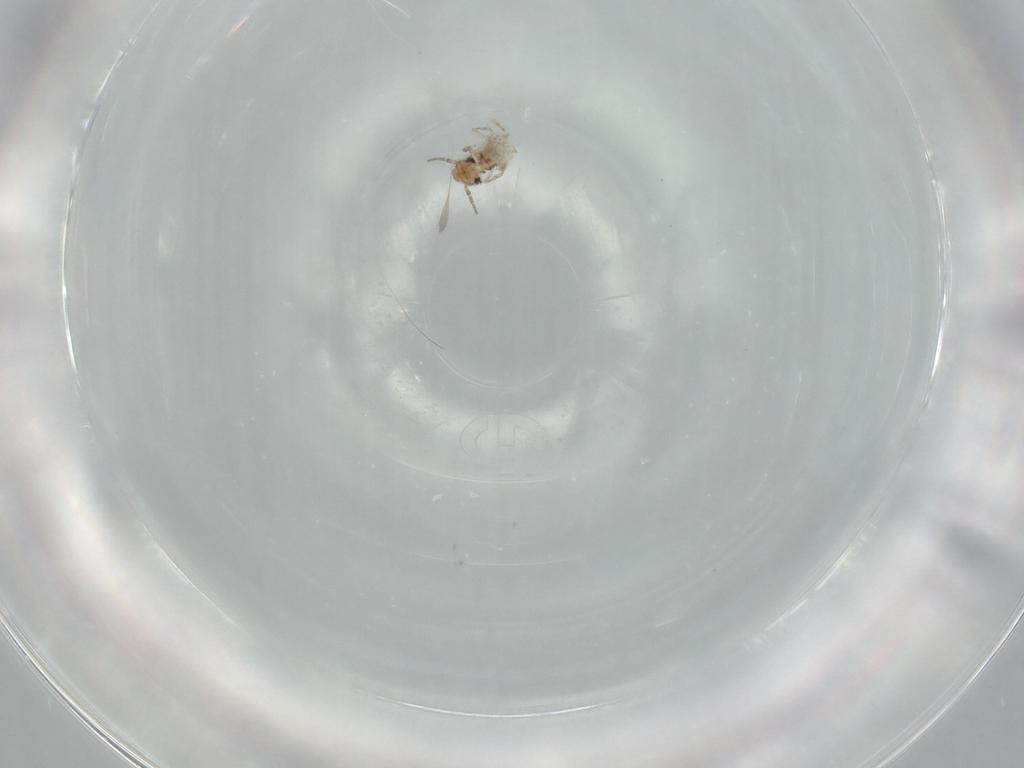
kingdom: Animalia
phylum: Arthropoda
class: Insecta
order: Psocodea
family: Lepidopsocidae
